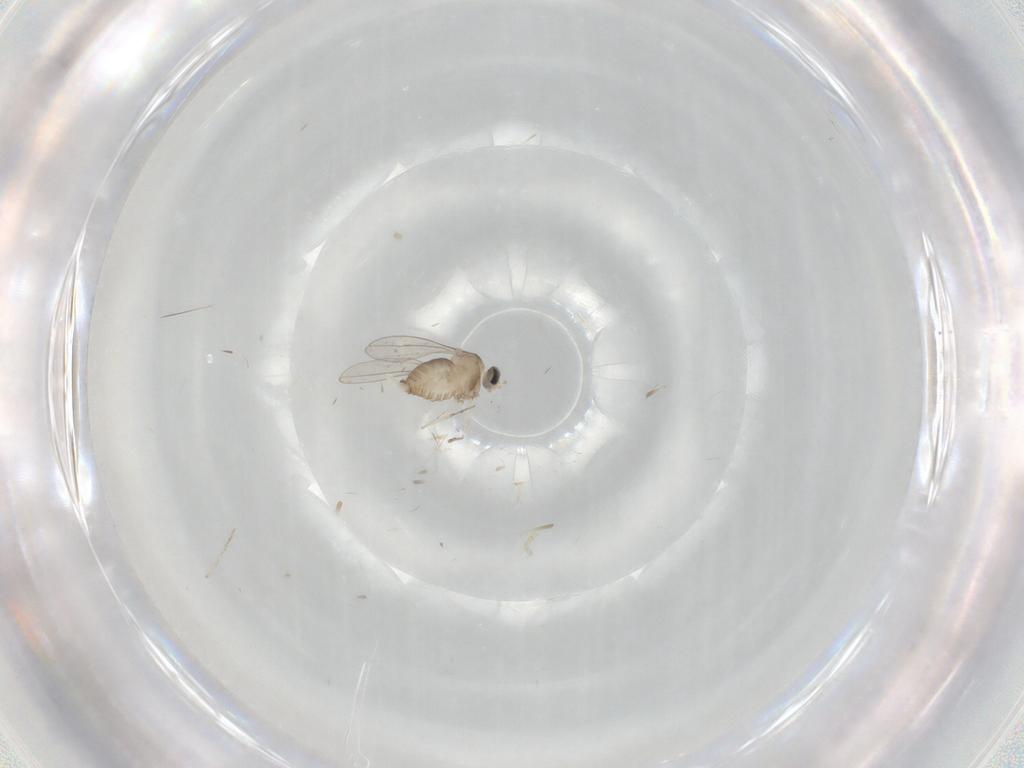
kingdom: Animalia
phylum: Arthropoda
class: Insecta
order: Diptera
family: Cecidomyiidae
